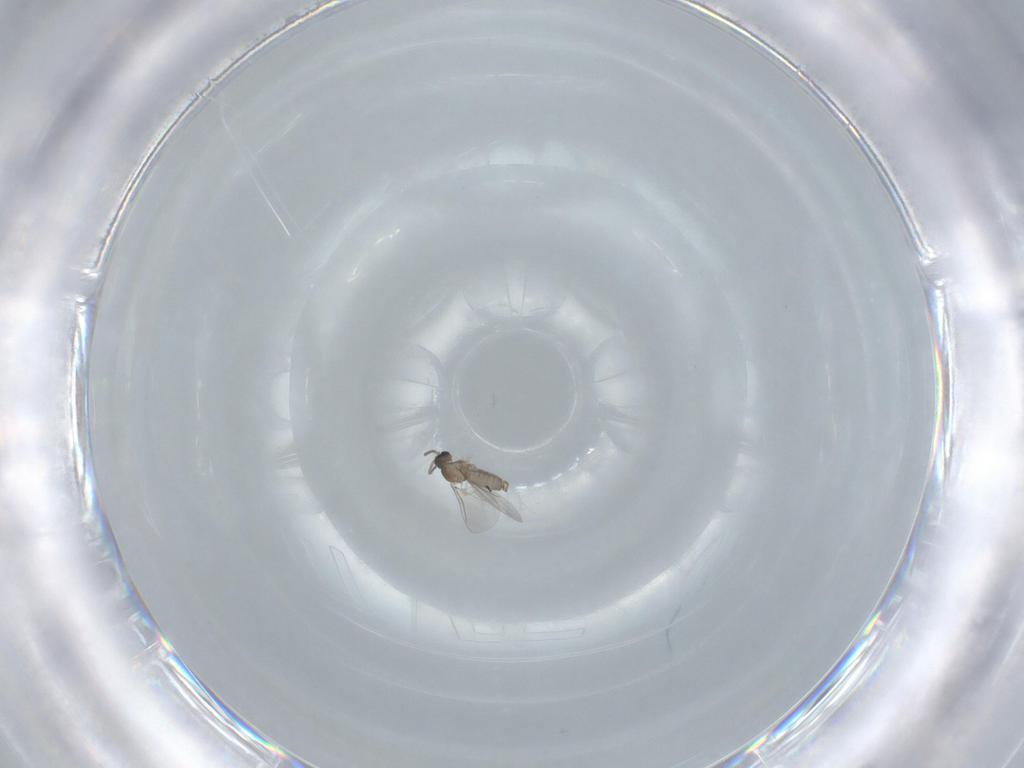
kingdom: Animalia
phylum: Arthropoda
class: Insecta
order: Diptera
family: Cecidomyiidae
